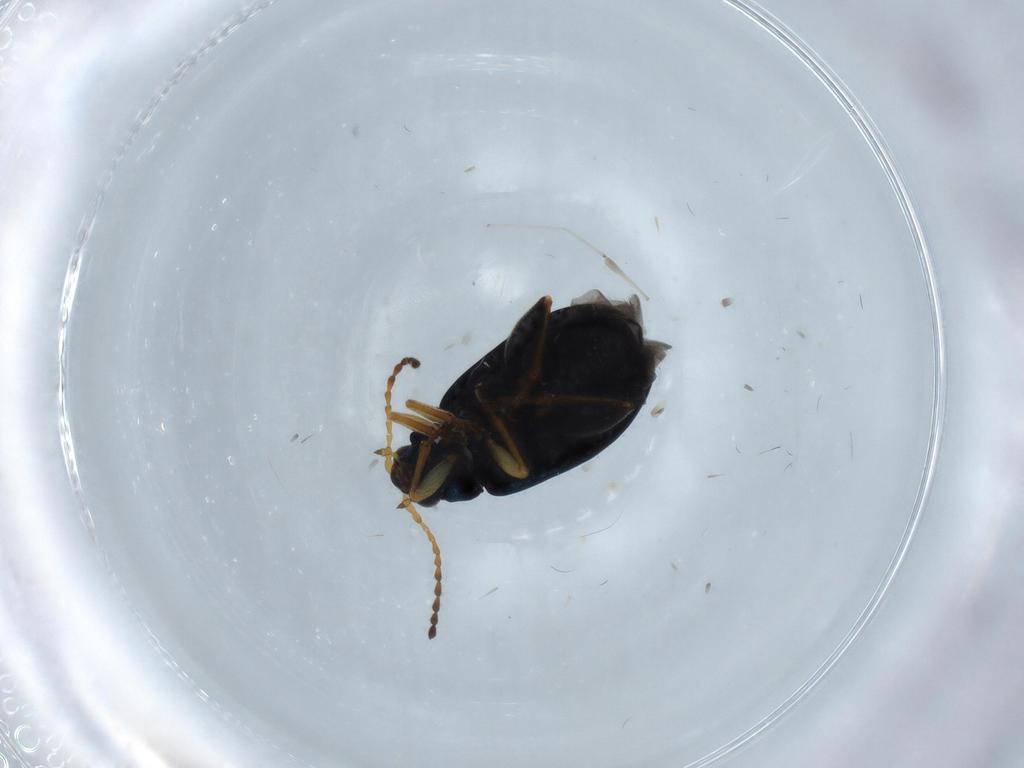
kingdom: Animalia
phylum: Arthropoda
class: Insecta
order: Coleoptera
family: Chrysomelidae
